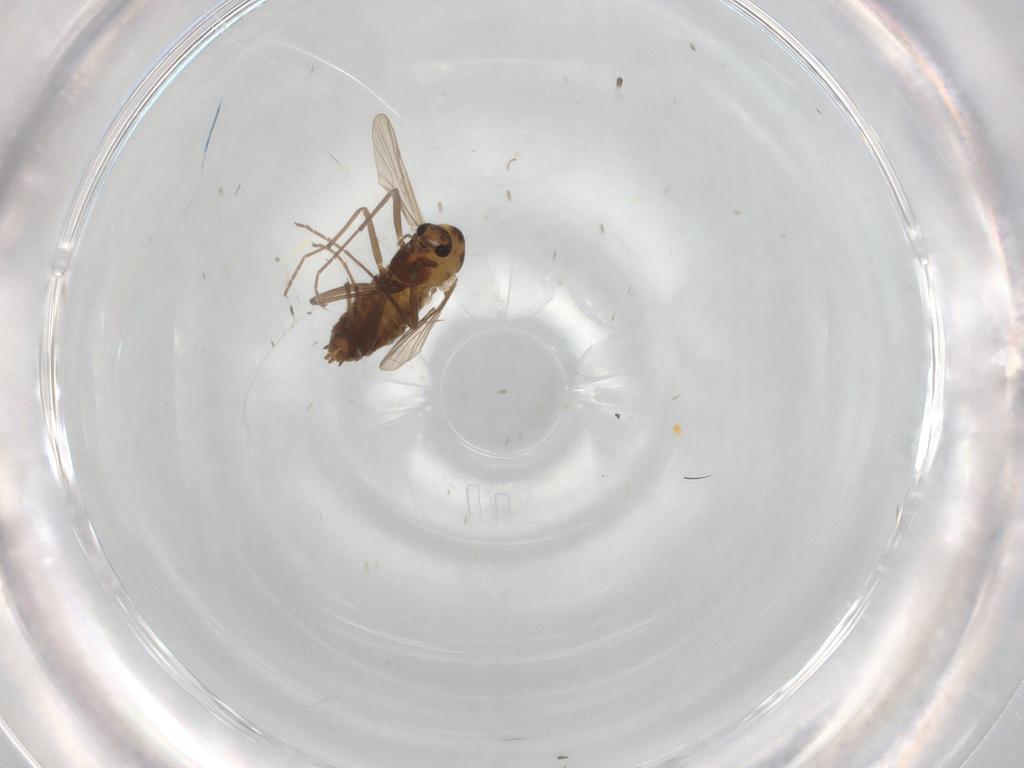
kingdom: Animalia
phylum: Arthropoda
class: Insecta
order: Diptera
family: Chironomidae
